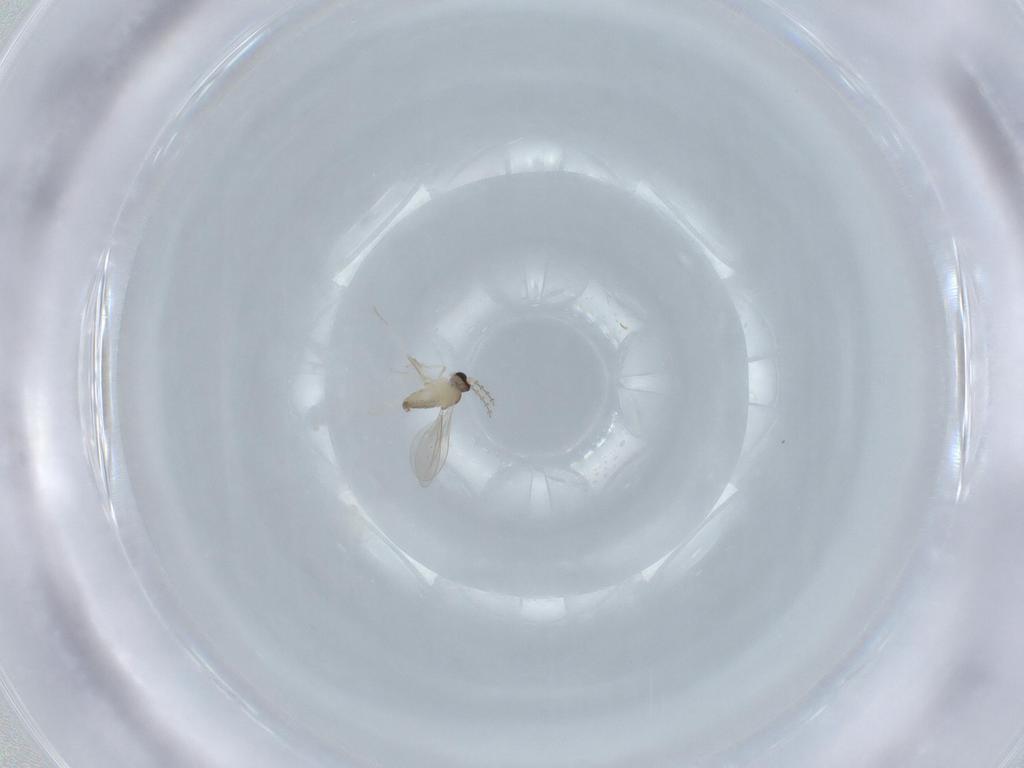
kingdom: Animalia
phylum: Arthropoda
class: Insecta
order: Diptera
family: Cecidomyiidae
